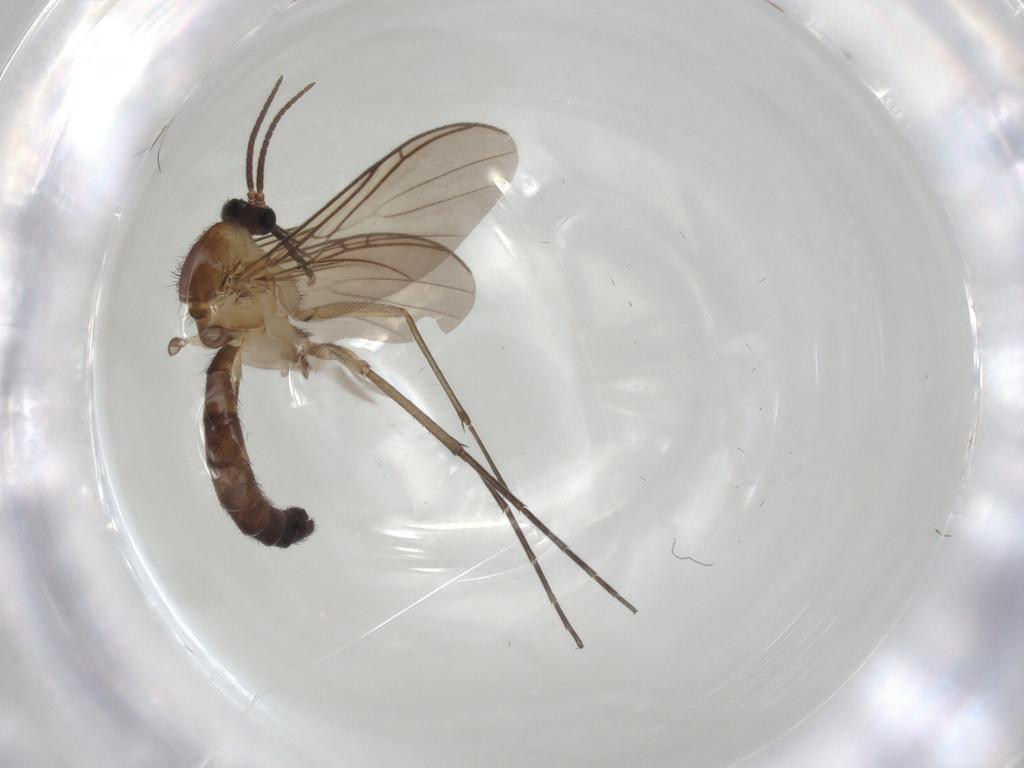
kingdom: Animalia
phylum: Arthropoda
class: Insecta
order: Diptera
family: Keroplatidae
